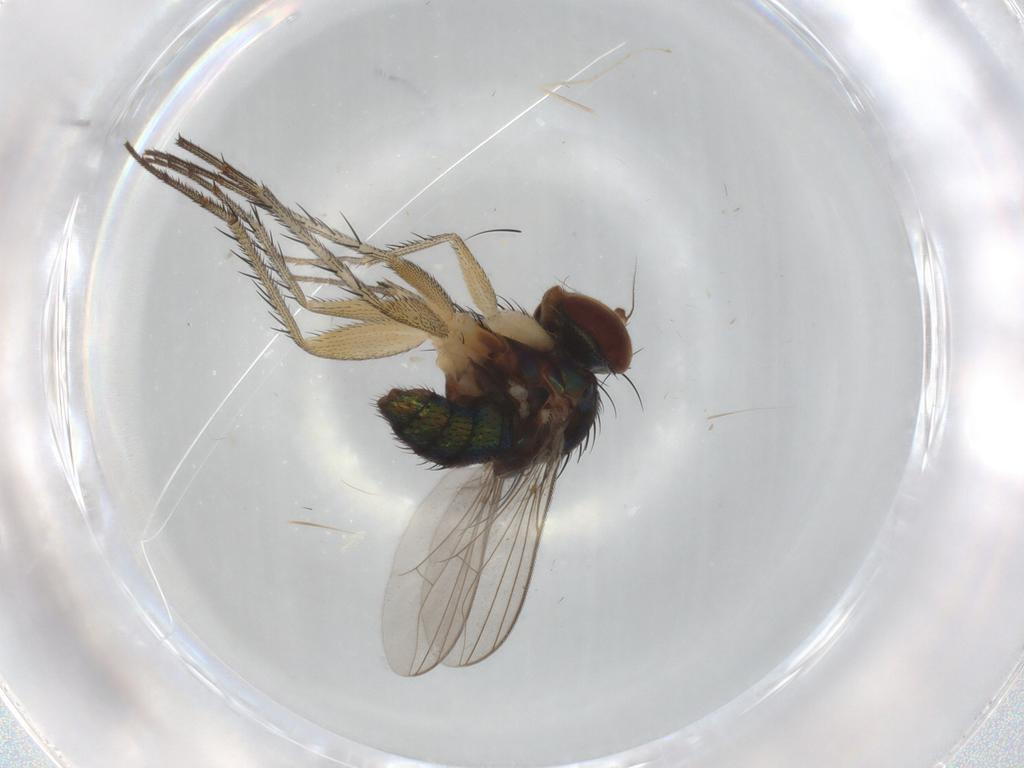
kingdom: Animalia
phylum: Arthropoda
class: Insecta
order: Diptera
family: Dolichopodidae
